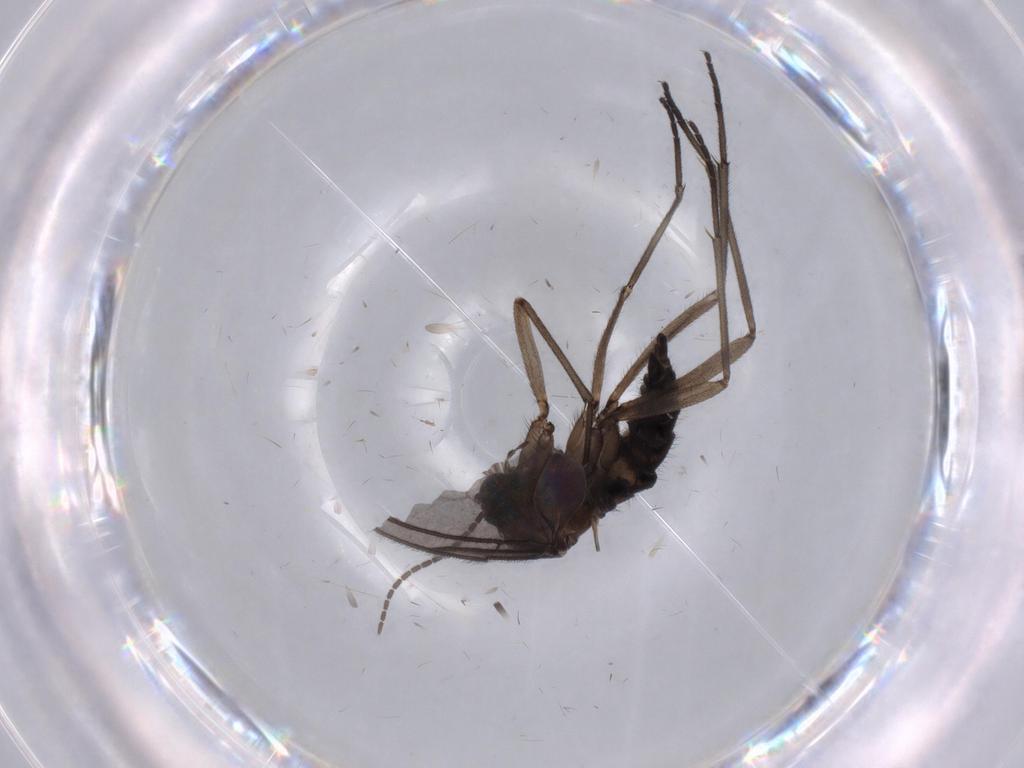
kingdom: Animalia
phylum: Arthropoda
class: Insecta
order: Diptera
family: Sciaridae
